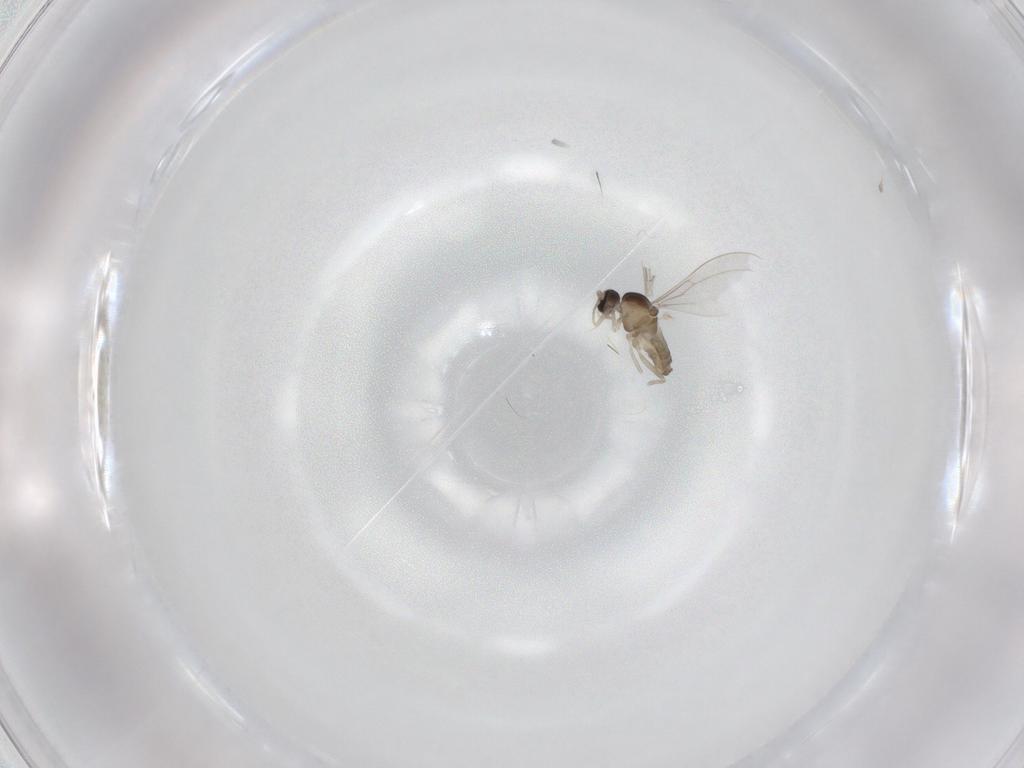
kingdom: Animalia
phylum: Arthropoda
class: Insecta
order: Diptera
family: Cecidomyiidae
